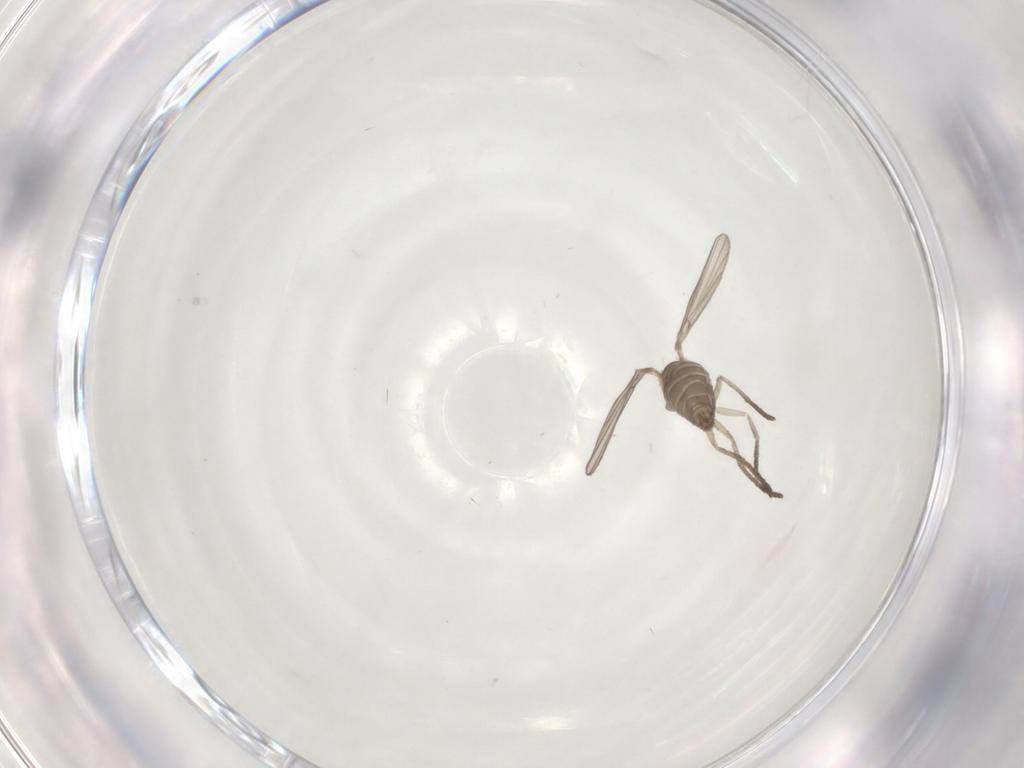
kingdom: Animalia
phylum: Arthropoda
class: Insecta
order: Diptera
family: Psychodidae
